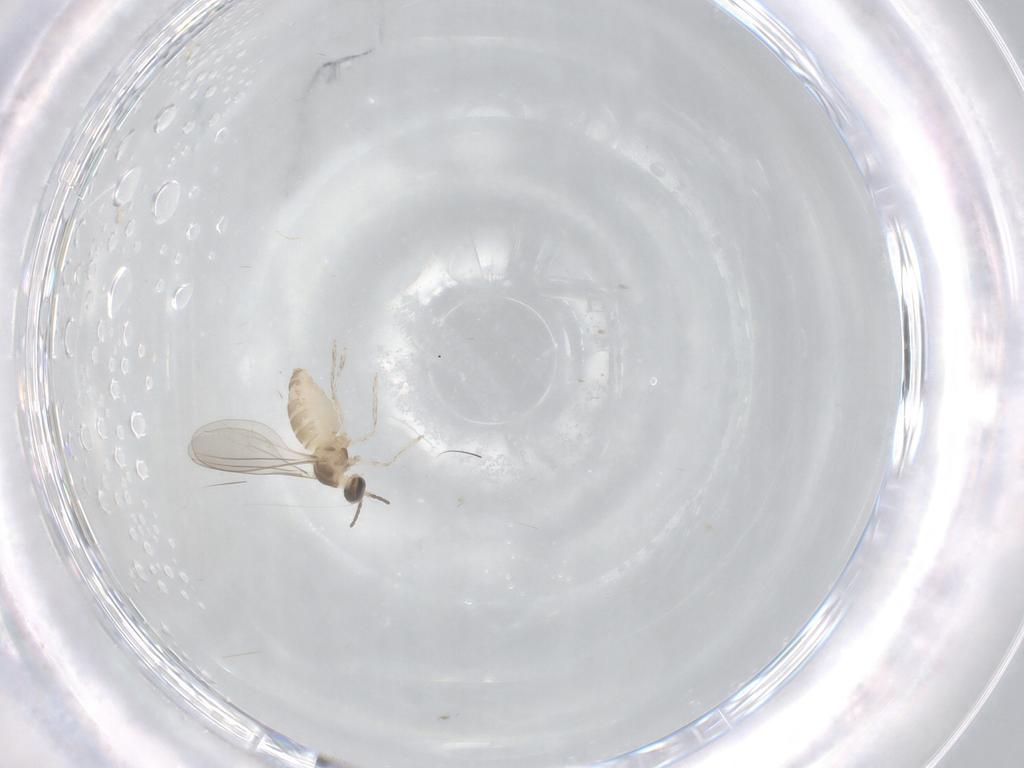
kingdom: Animalia
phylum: Arthropoda
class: Insecta
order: Diptera
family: Cecidomyiidae
